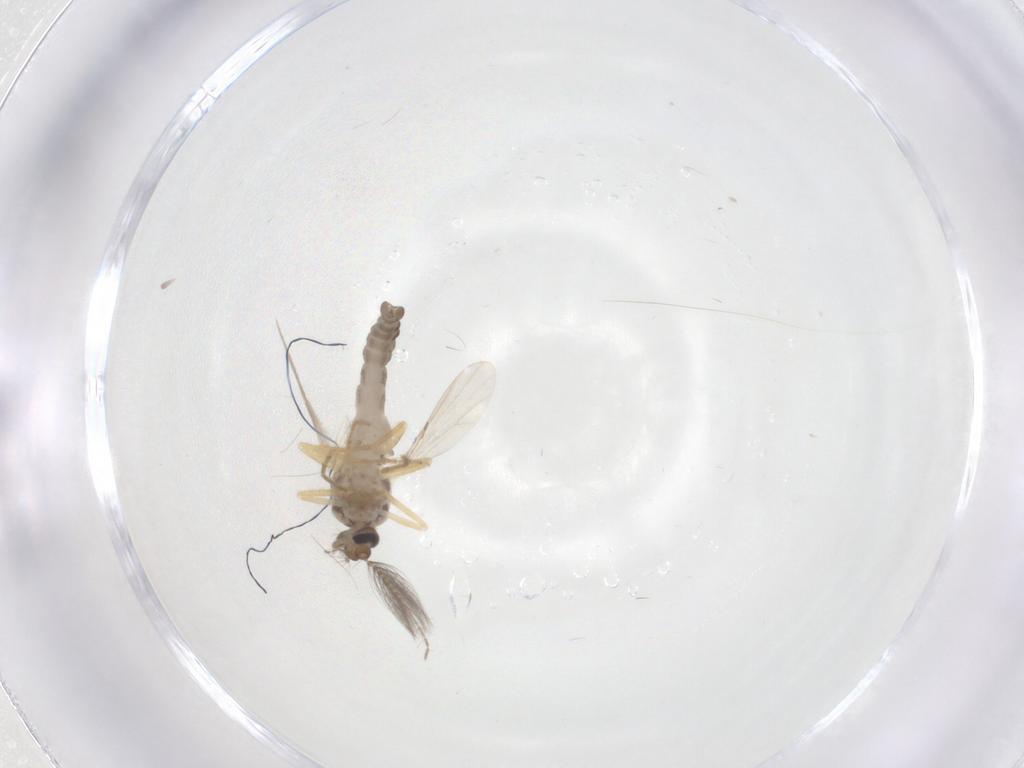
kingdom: Animalia
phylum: Arthropoda
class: Insecta
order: Diptera
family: Ceratopogonidae
